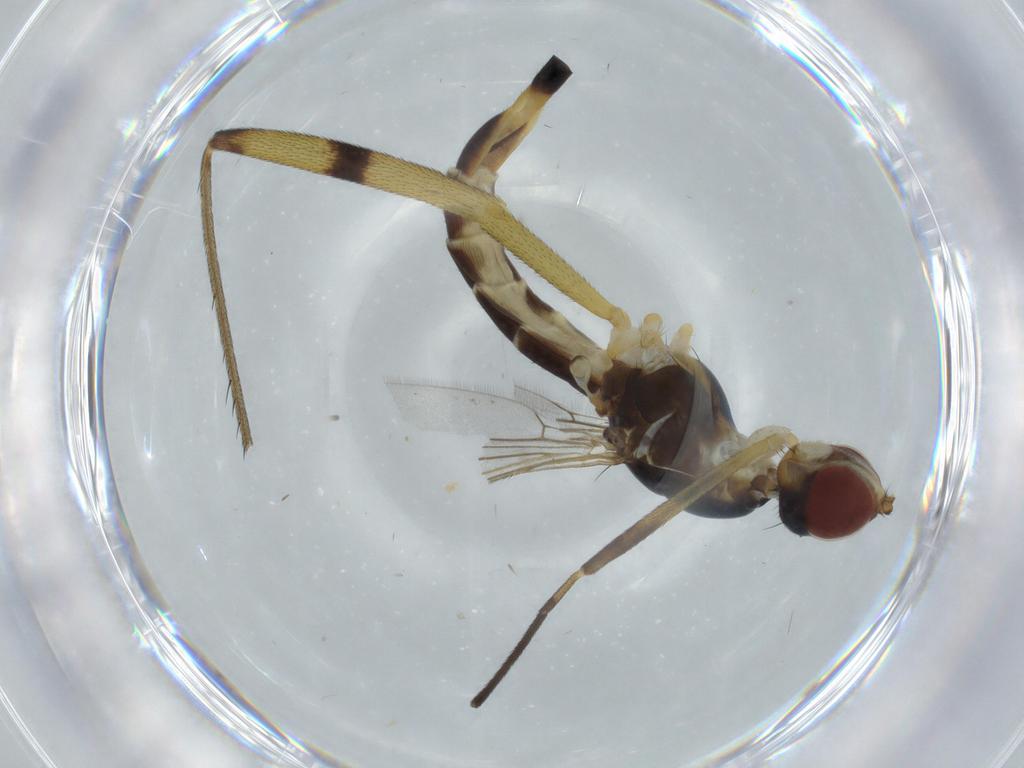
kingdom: Animalia
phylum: Arthropoda
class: Insecta
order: Diptera
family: Micropezidae
